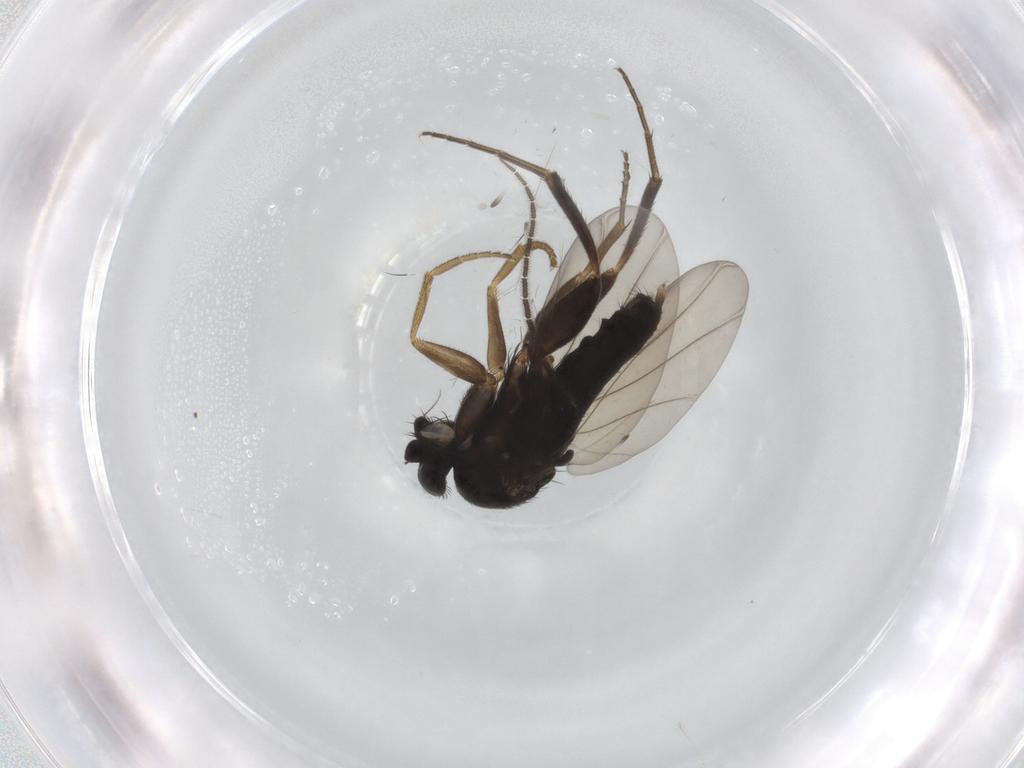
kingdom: Animalia
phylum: Arthropoda
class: Insecta
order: Diptera
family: Phoridae
